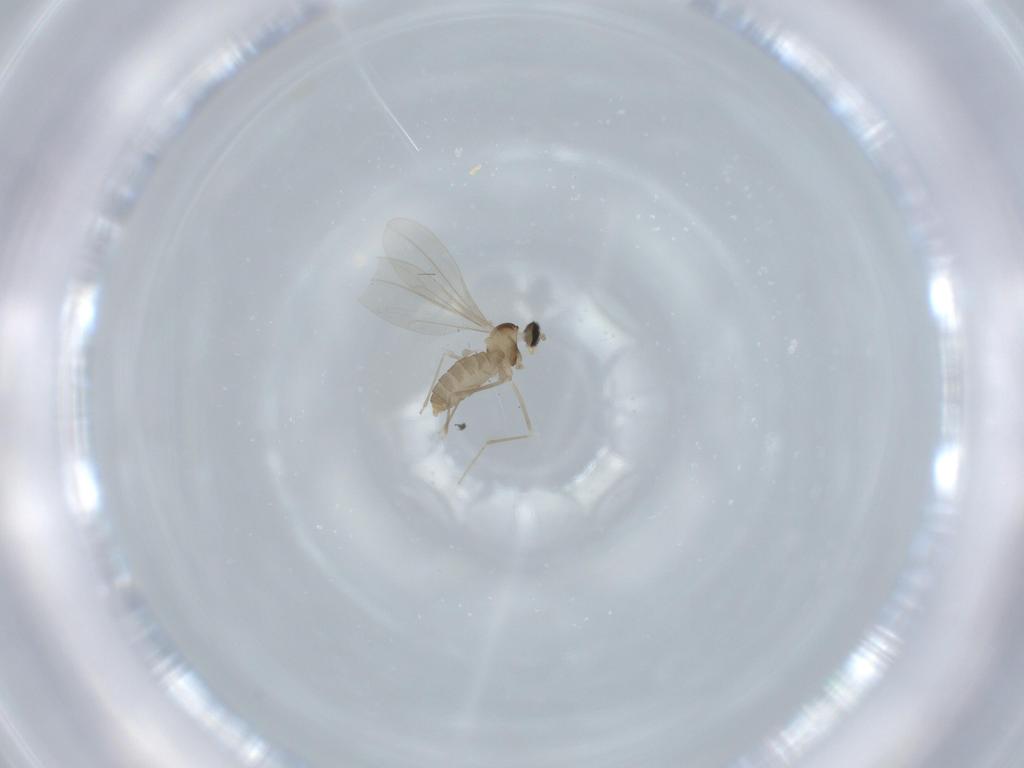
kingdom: Animalia
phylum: Arthropoda
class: Insecta
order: Diptera
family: Cecidomyiidae
